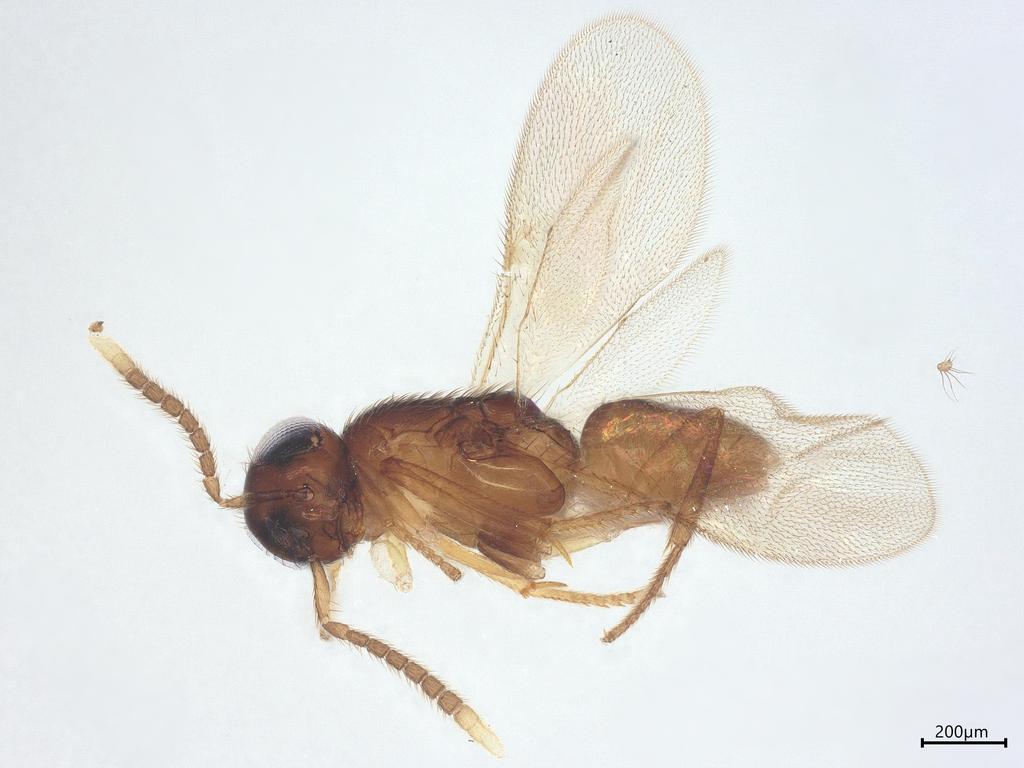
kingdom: Animalia
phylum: Arthropoda
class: Insecta
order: Hymenoptera
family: Encyrtidae
